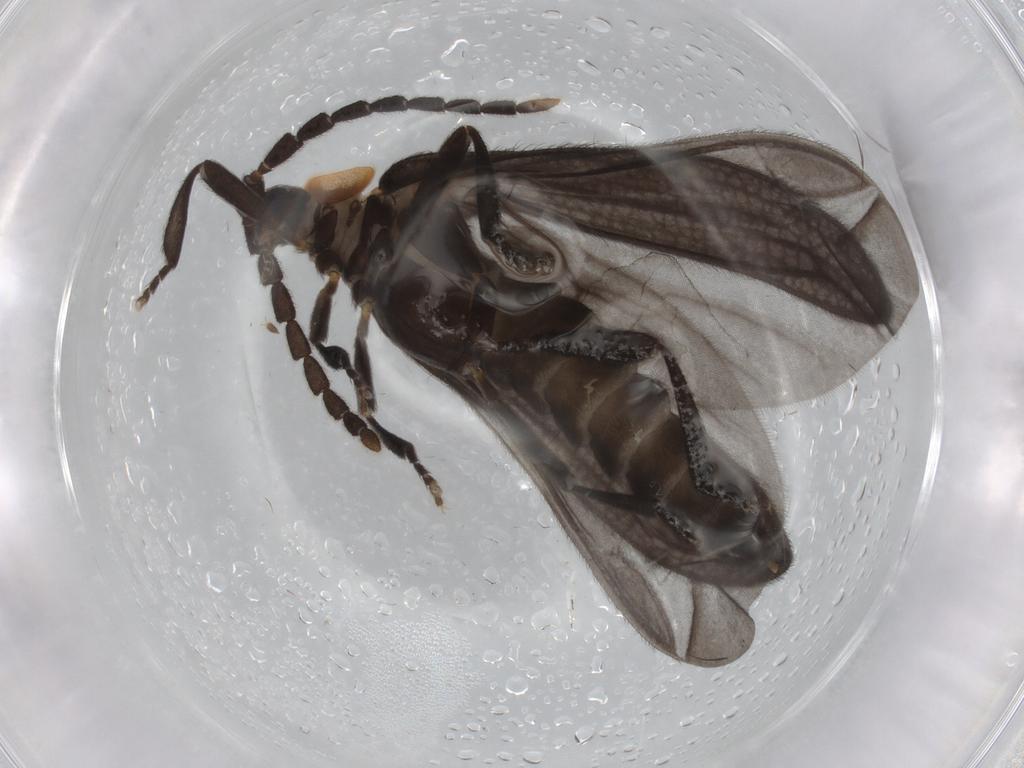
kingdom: Animalia
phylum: Arthropoda
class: Insecta
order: Coleoptera
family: Lycidae
